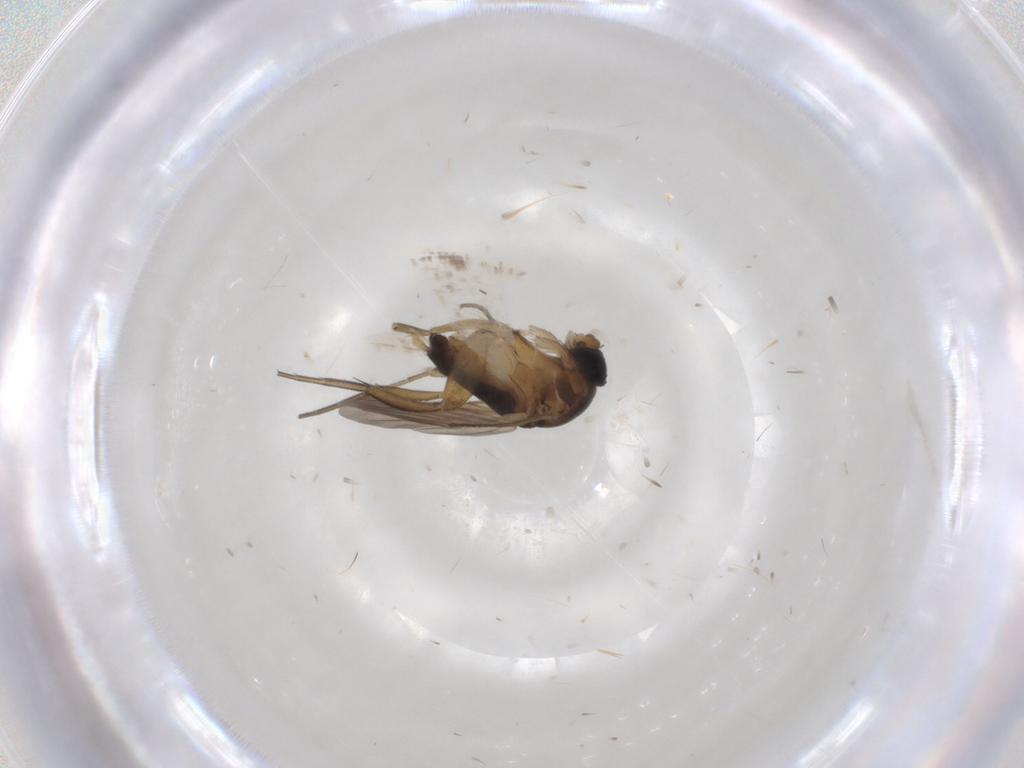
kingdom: Animalia
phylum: Arthropoda
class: Insecta
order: Diptera
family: Phoridae
